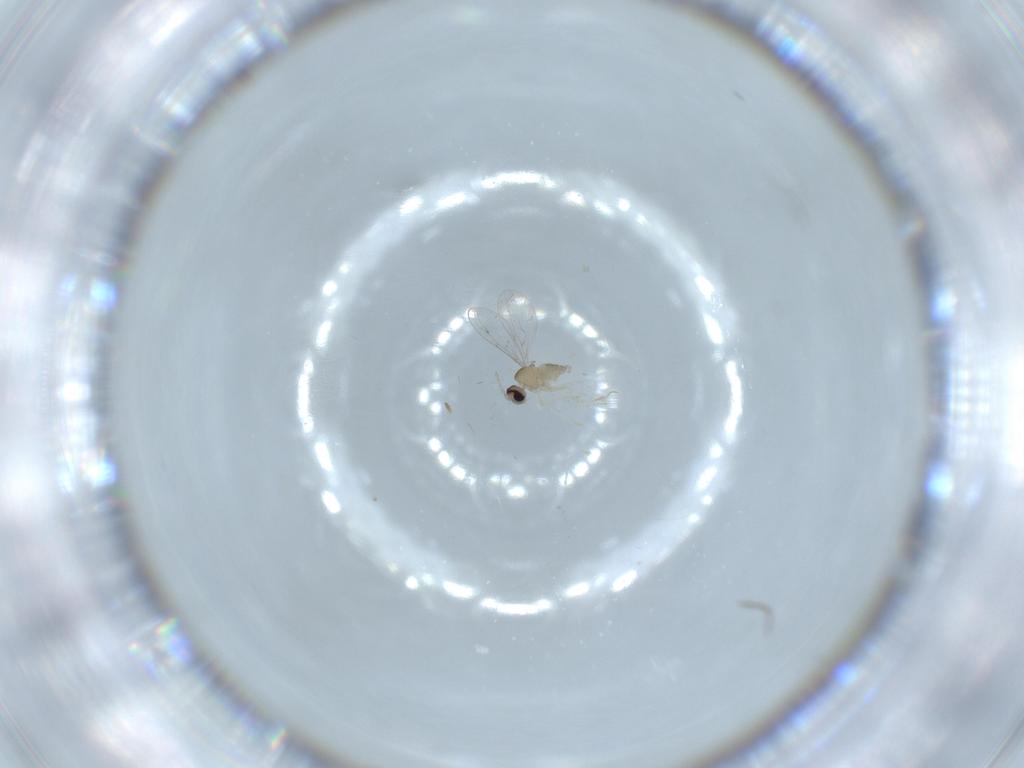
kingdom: Animalia
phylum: Arthropoda
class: Insecta
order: Diptera
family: Cecidomyiidae
